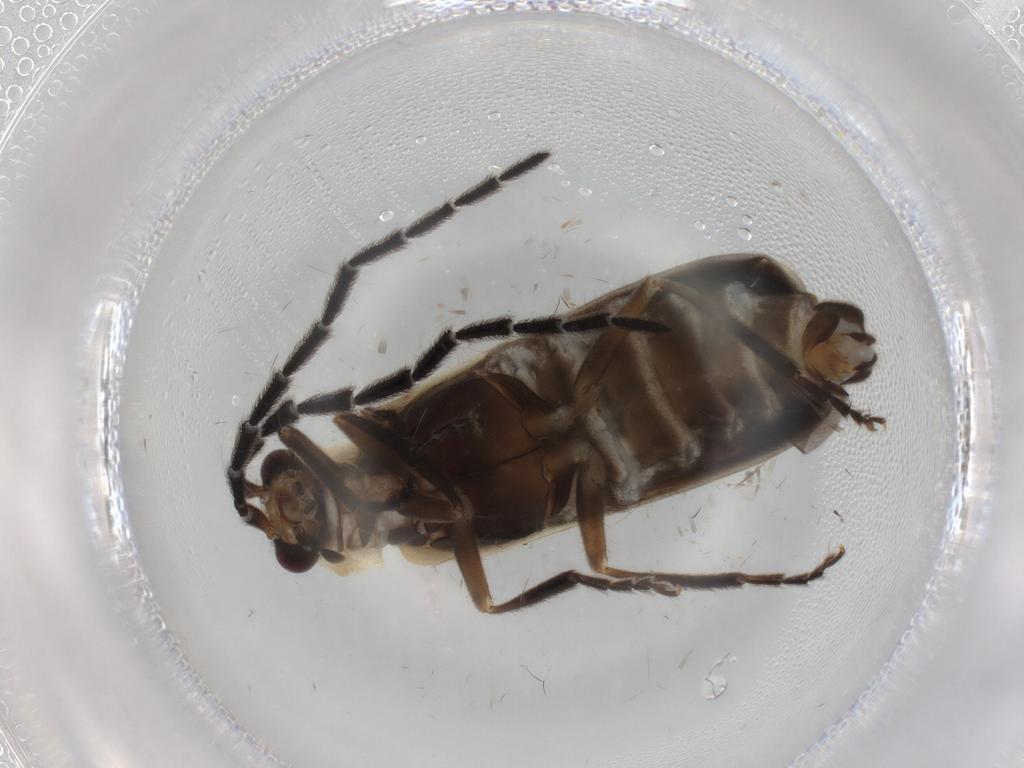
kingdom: Animalia
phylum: Arthropoda
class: Insecta
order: Coleoptera
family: Cantharidae
